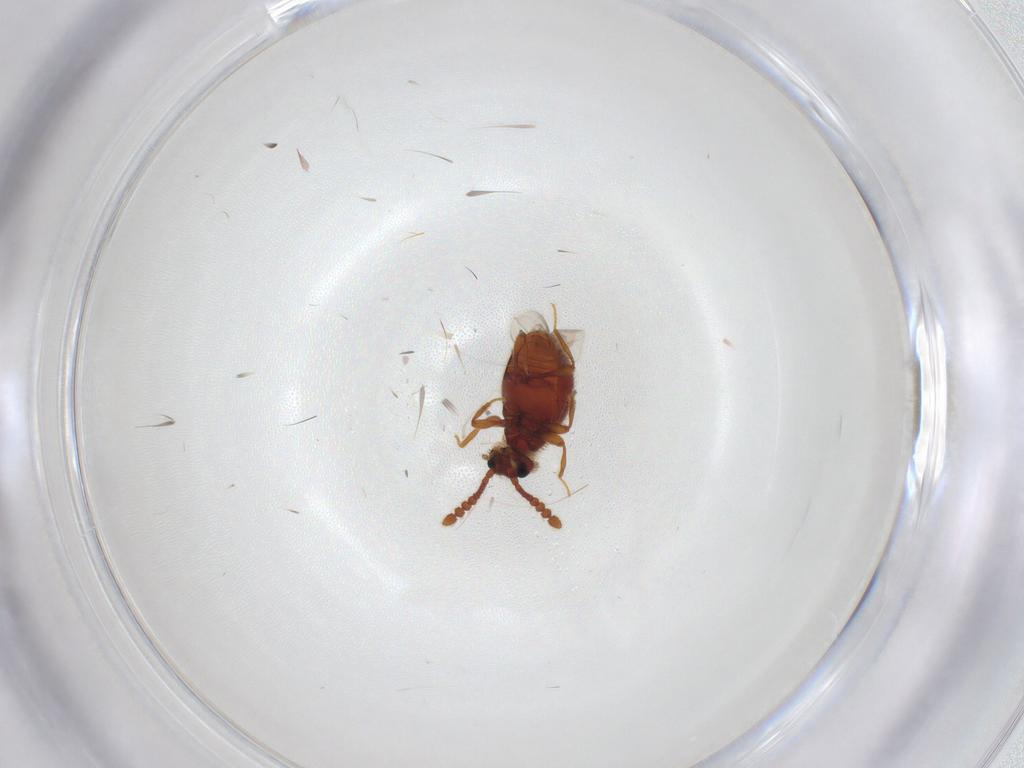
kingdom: Animalia
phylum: Arthropoda
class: Insecta
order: Coleoptera
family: Staphylinidae
